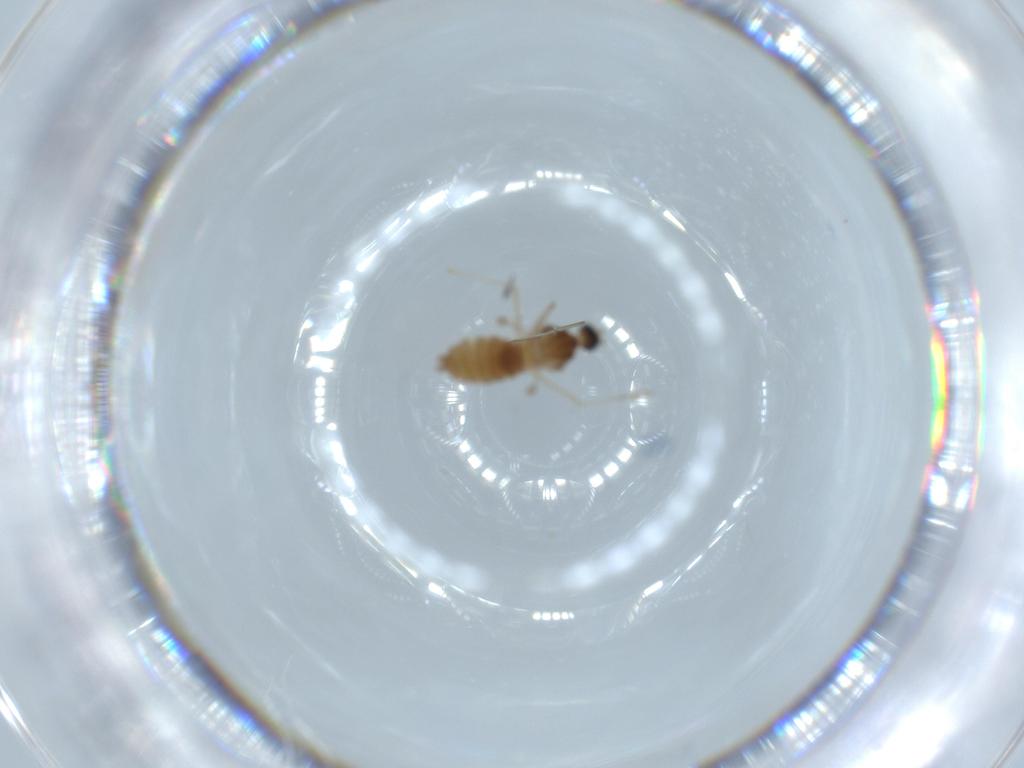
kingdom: Animalia
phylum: Arthropoda
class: Insecta
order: Diptera
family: Cecidomyiidae
